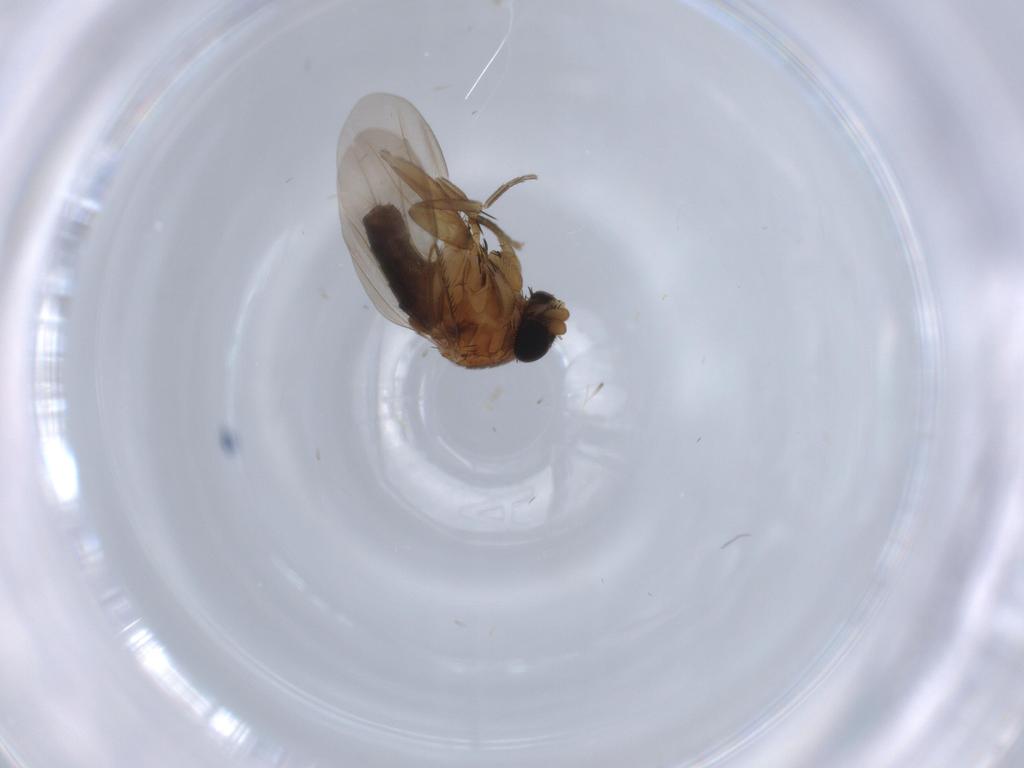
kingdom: Animalia
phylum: Arthropoda
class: Insecta
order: Diptera
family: Phoridae
